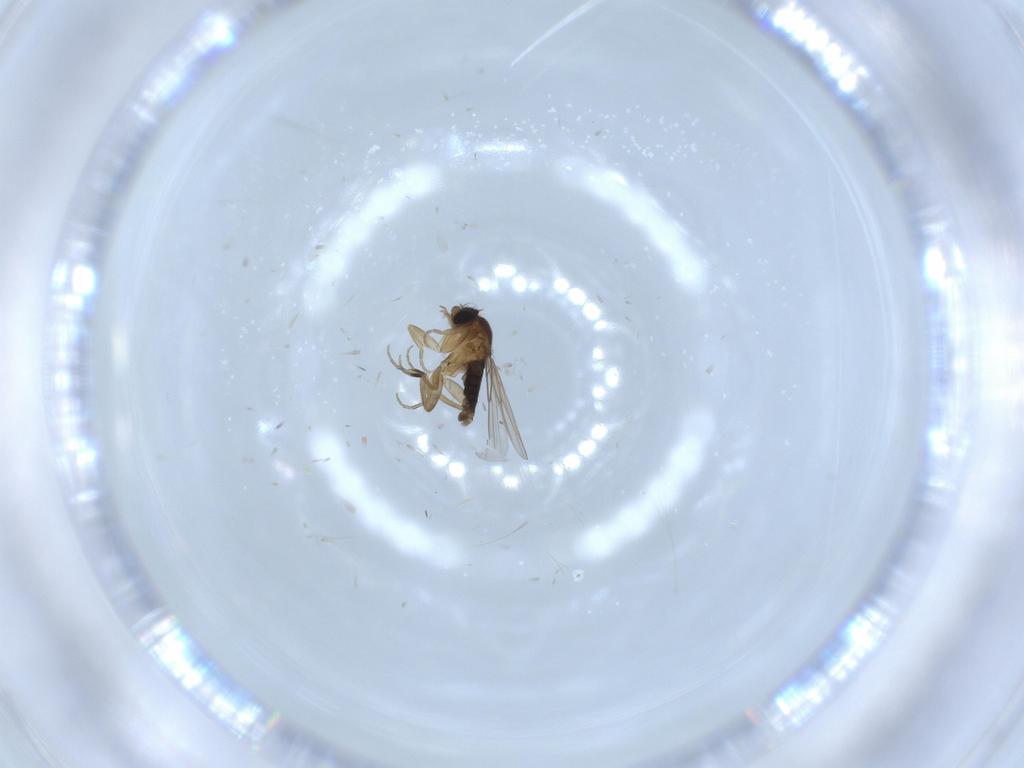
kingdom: Animalia
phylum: Arthropoda
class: Insecta
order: Diptera
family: Phoridae
